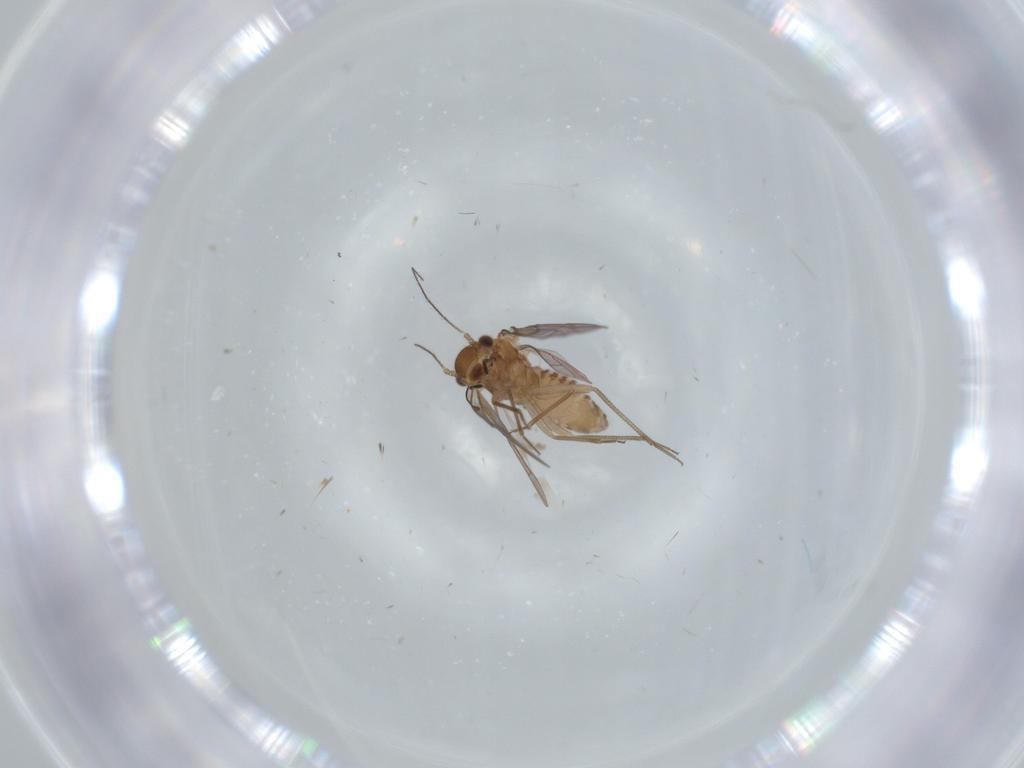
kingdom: Animalia
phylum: Arthropoda
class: Insecta
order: Psocodea
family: Lachesillidae
